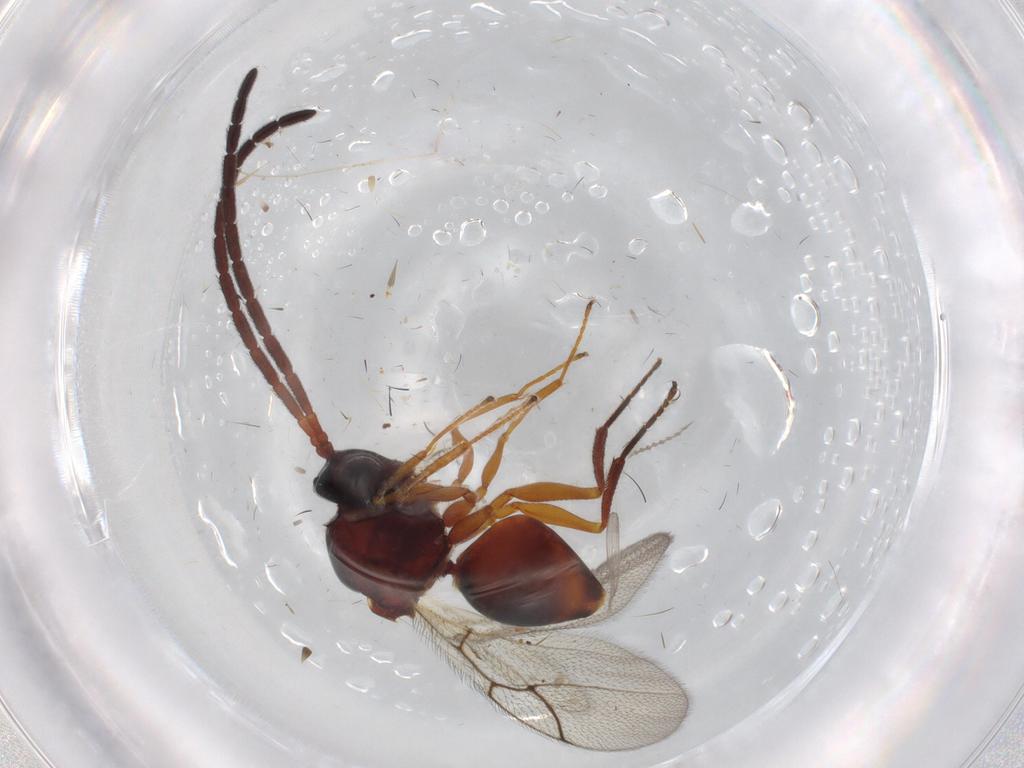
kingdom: Animalia
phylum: Arthropoda
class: Insecta
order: Hymenoptera
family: Figitidae
